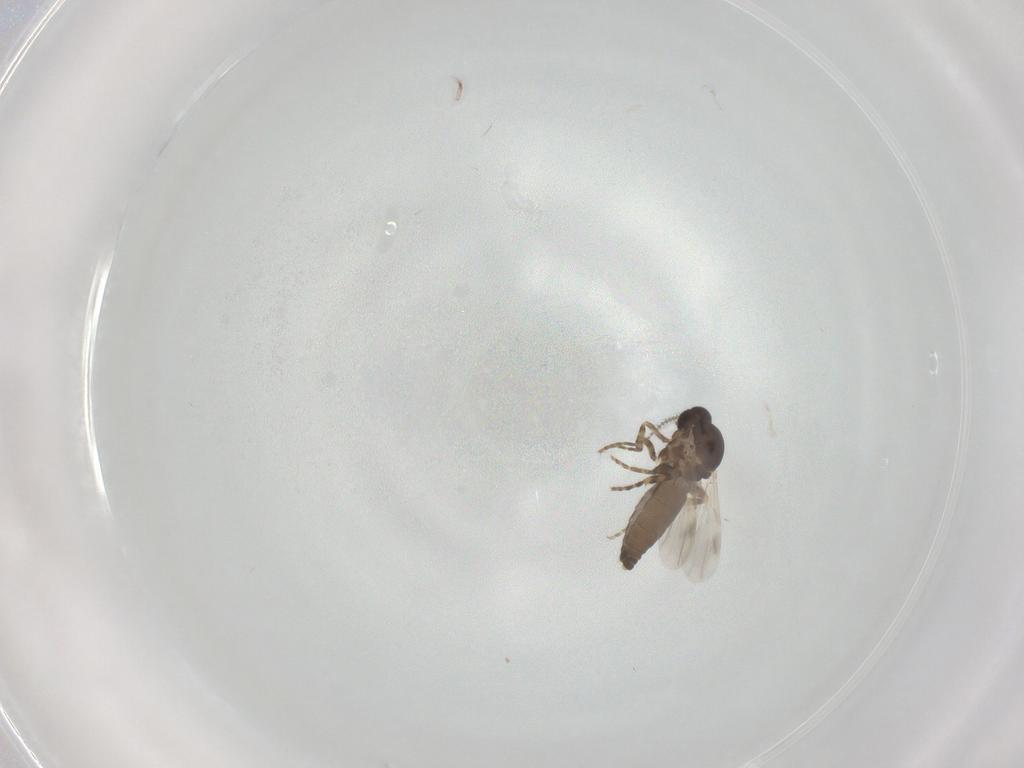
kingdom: Animalia
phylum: Arthropoda
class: Insecta
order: Diptera
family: Ceratopogonidae
